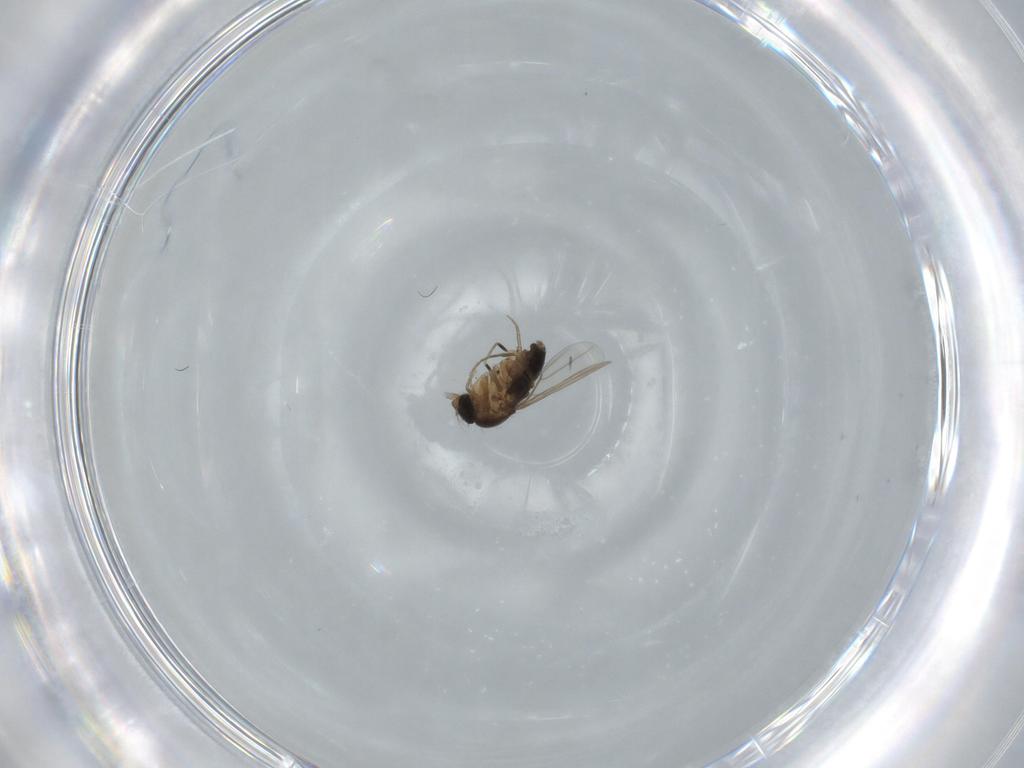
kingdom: Animalia
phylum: Arthropoda
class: Insecta
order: Diptera
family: Phoridae
